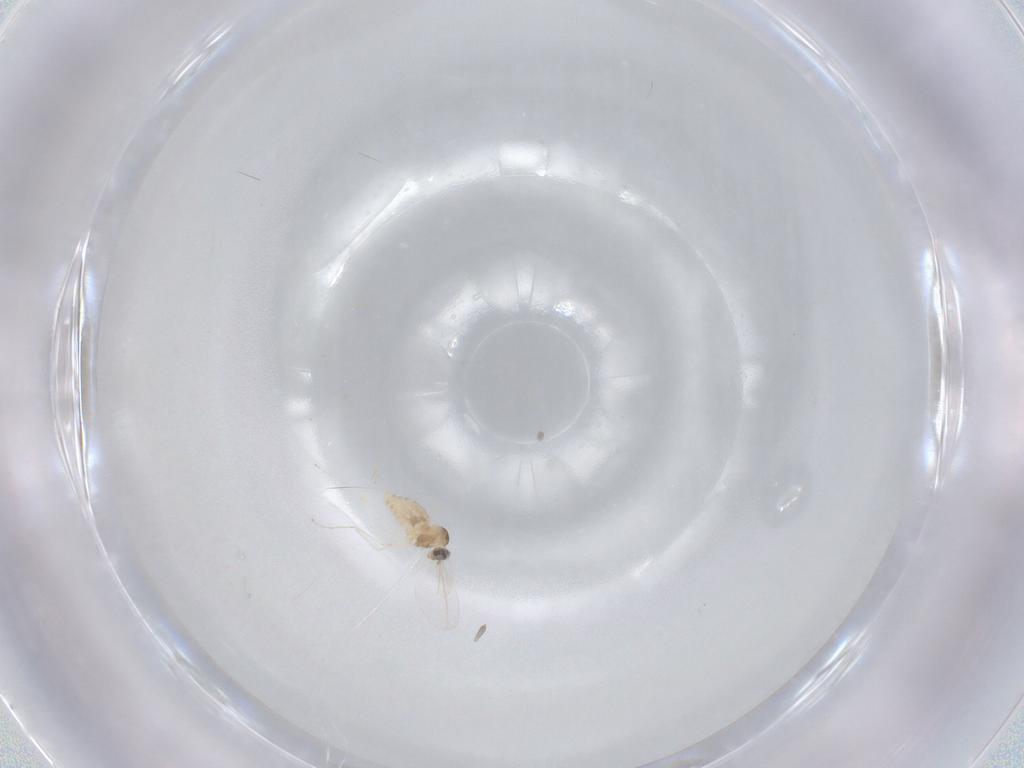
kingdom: Animalia
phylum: Arthropoda
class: Insecta
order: Diptera
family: Cecidomyiidae
